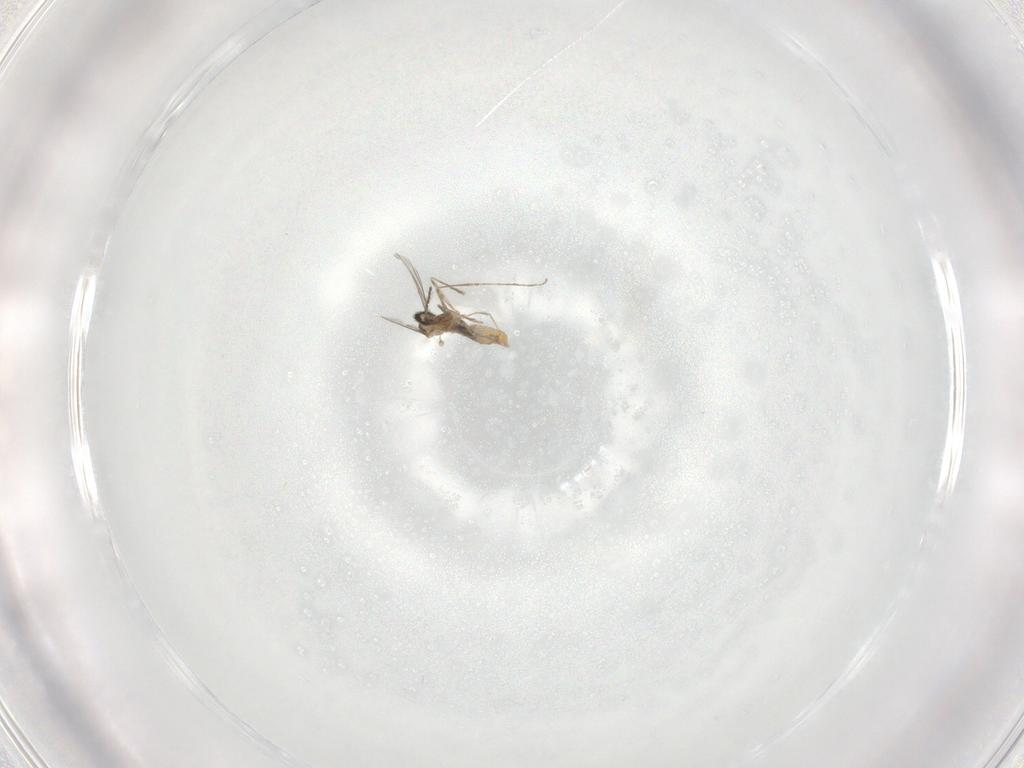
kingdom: Animalia
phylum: Arthropoda
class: Insecta
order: Diptera
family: Cecidomyiidae
